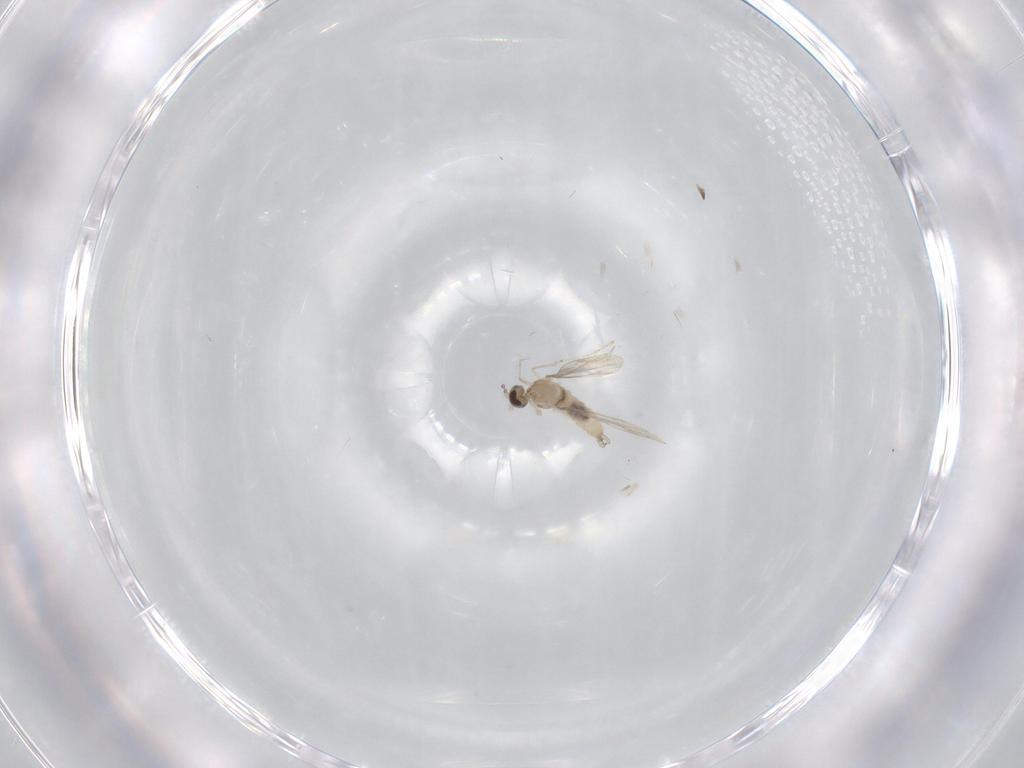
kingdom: Animalia
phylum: Arthropoda
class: Insecta
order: Diptera
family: Cecidomyiidae
